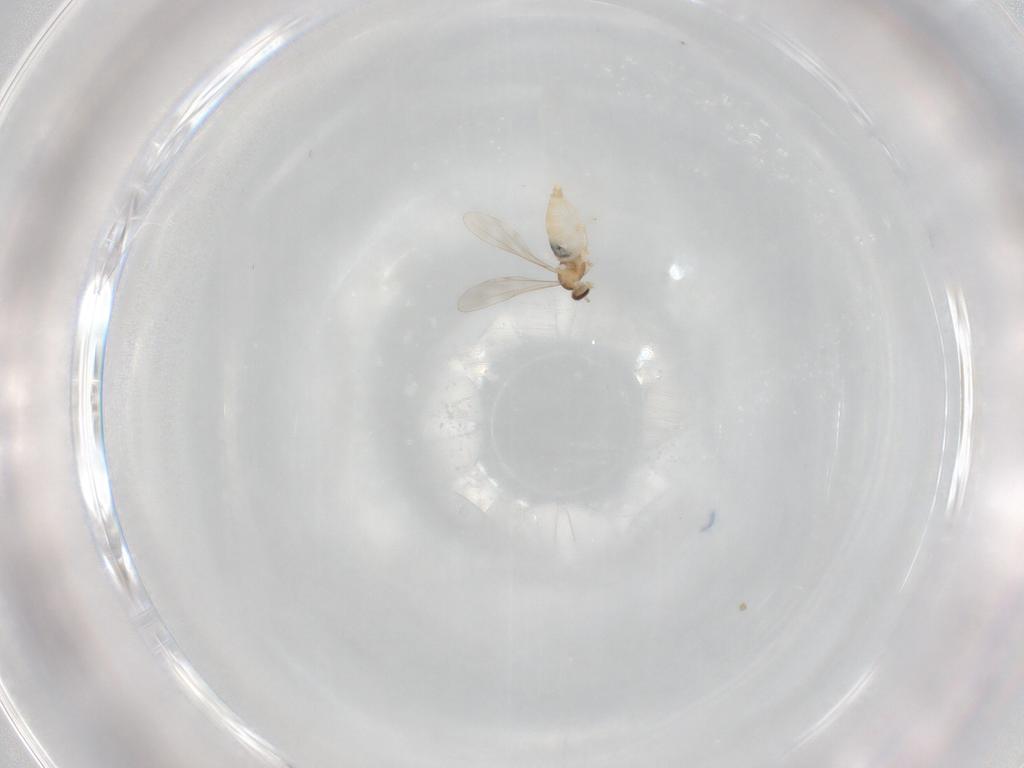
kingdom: Animalia
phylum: Arthropoda
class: Insecta
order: Diptera
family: Cecidomyiidae
